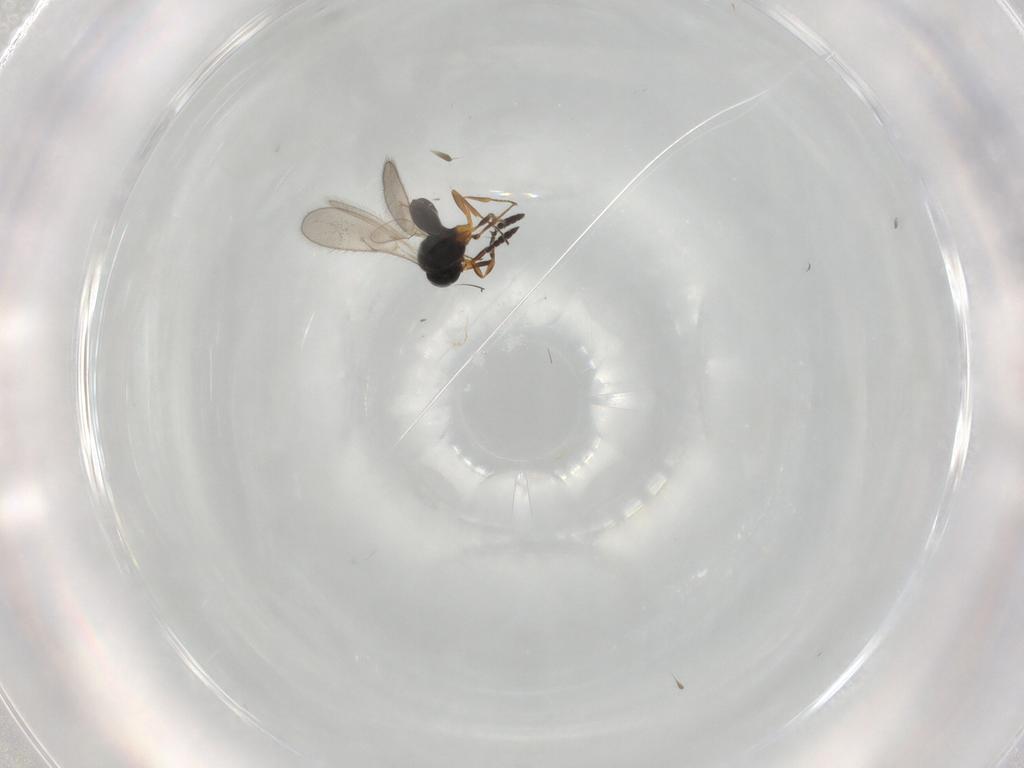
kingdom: Animalia
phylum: Arthropoda
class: Insecta
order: Hymenoptera
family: Scelionidae
